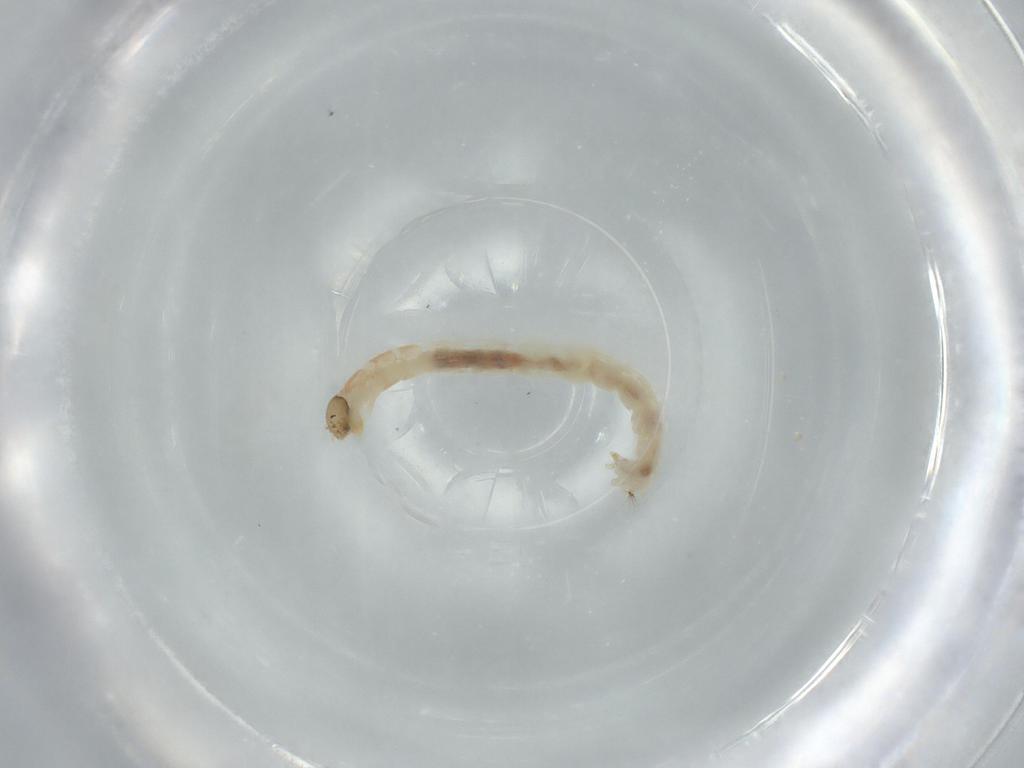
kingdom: Animalia
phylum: Arthropoda
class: Insecta
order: Diptera
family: Chironomidae
